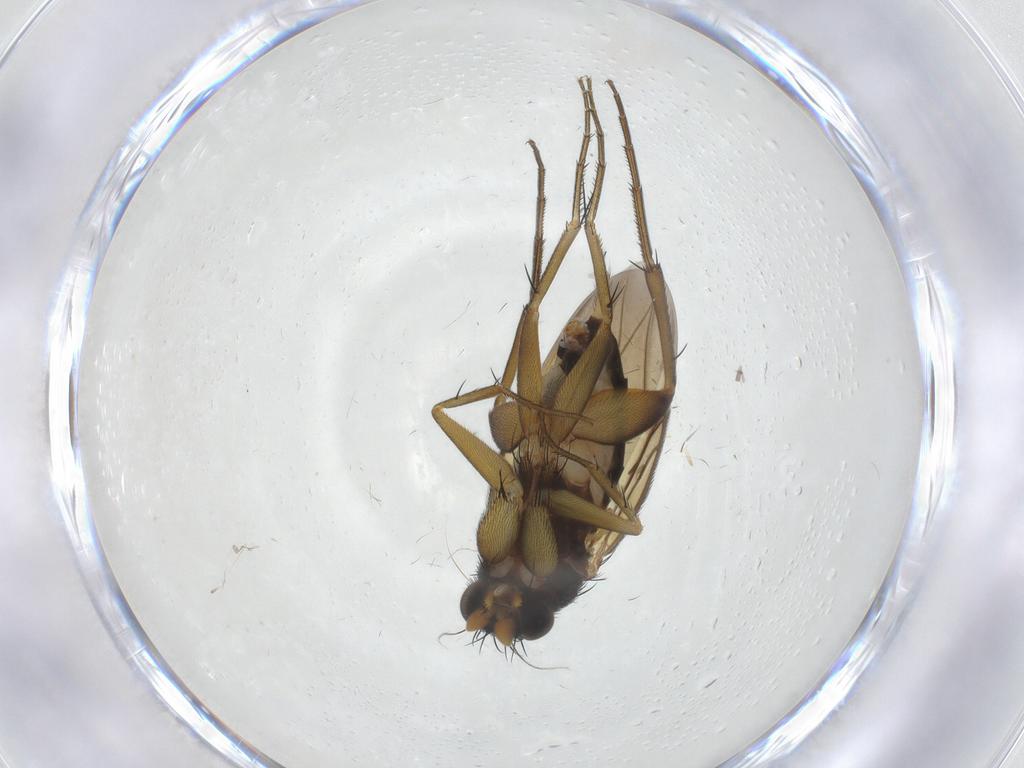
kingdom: Animalia
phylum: Arthropoda
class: Insecta
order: Diptera
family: Phoridae
